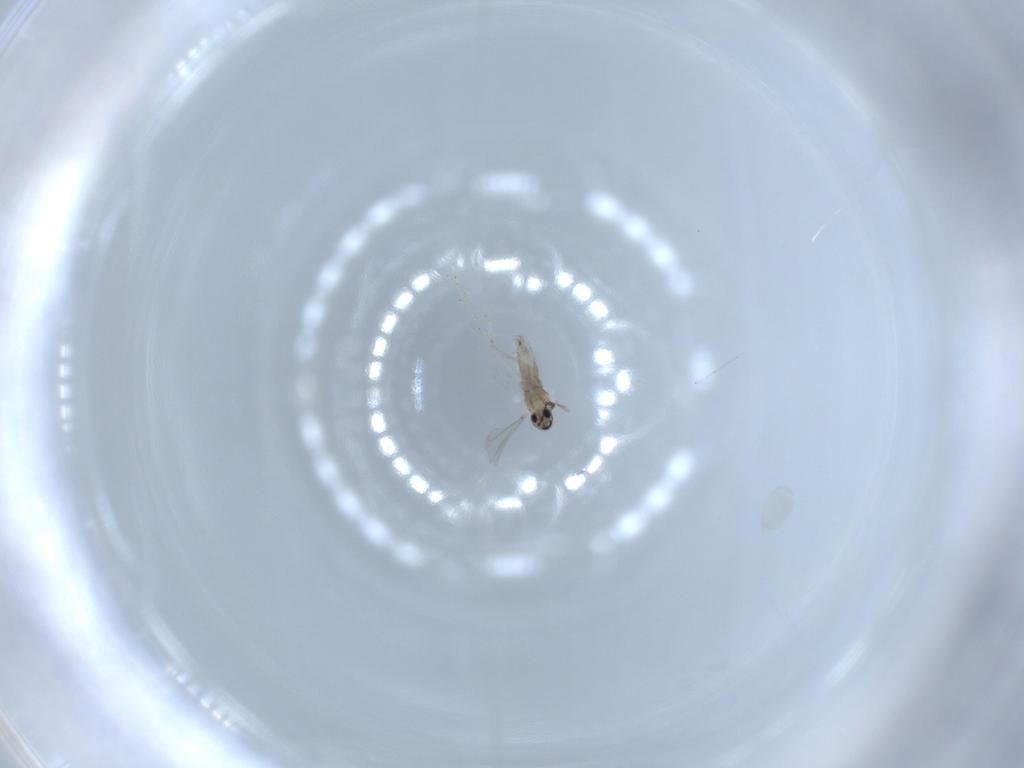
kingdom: Animalia
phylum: Arthropoda
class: Insecta
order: Diptera
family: Cecidomyiidae
